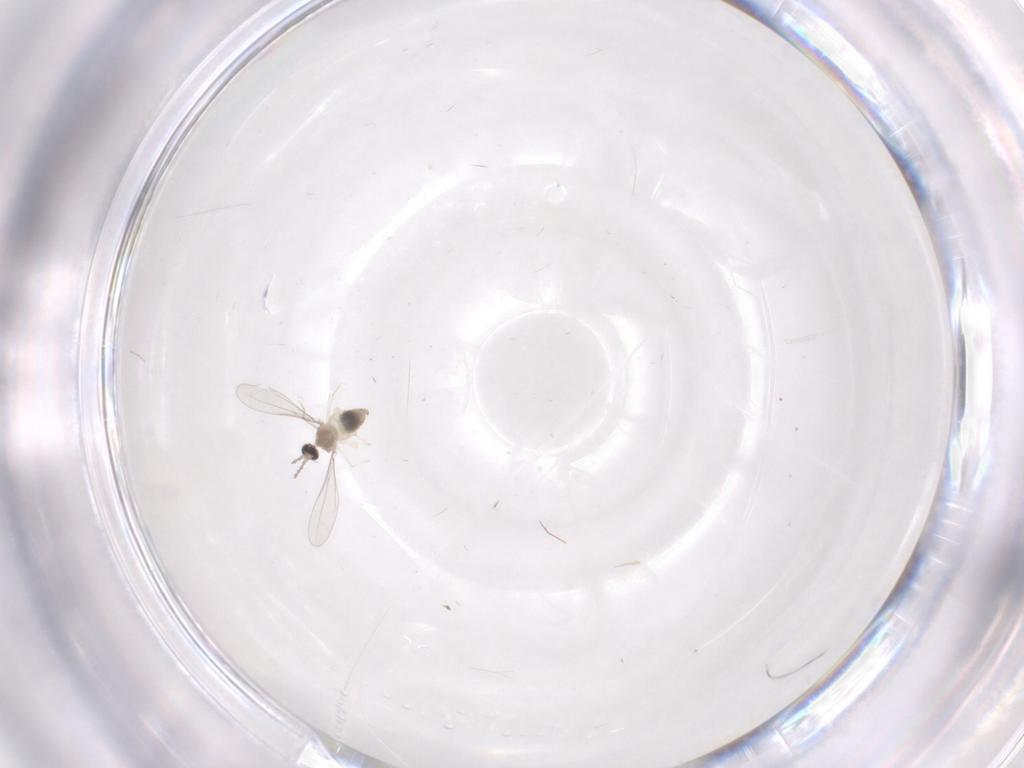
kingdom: Animalia
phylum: Arthropoda
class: Insecta
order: Diptera
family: Cecidomyiidae
